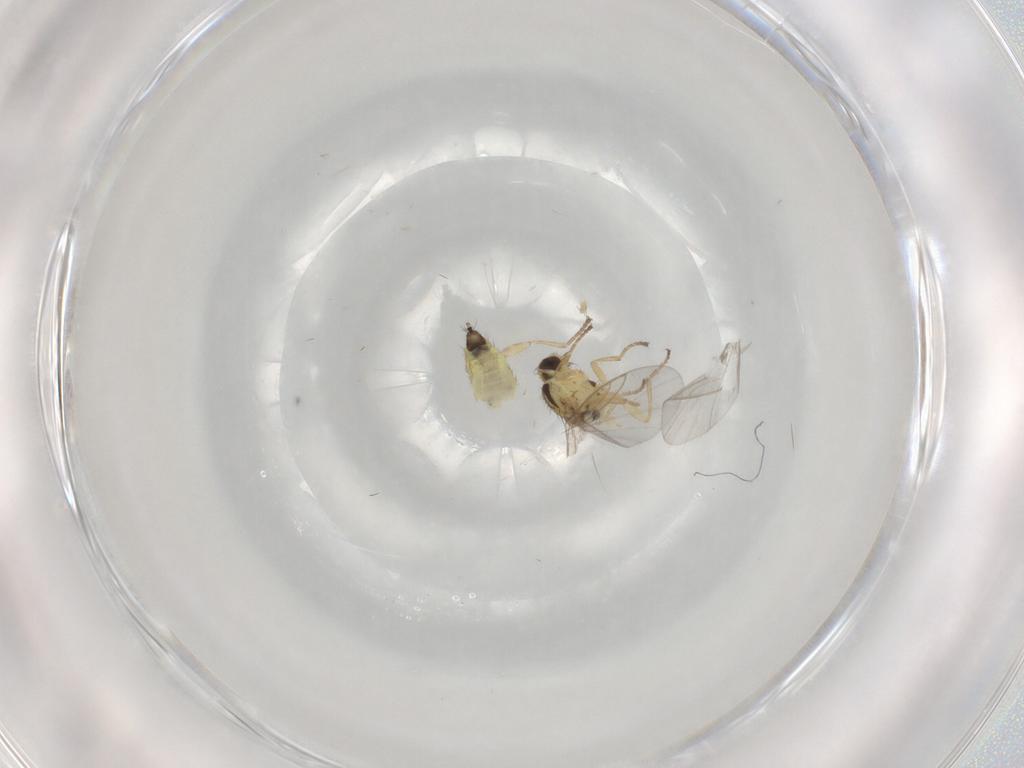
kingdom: Animalia
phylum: Arthropoda
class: Insecta
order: Diptera
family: Agromyzidae
